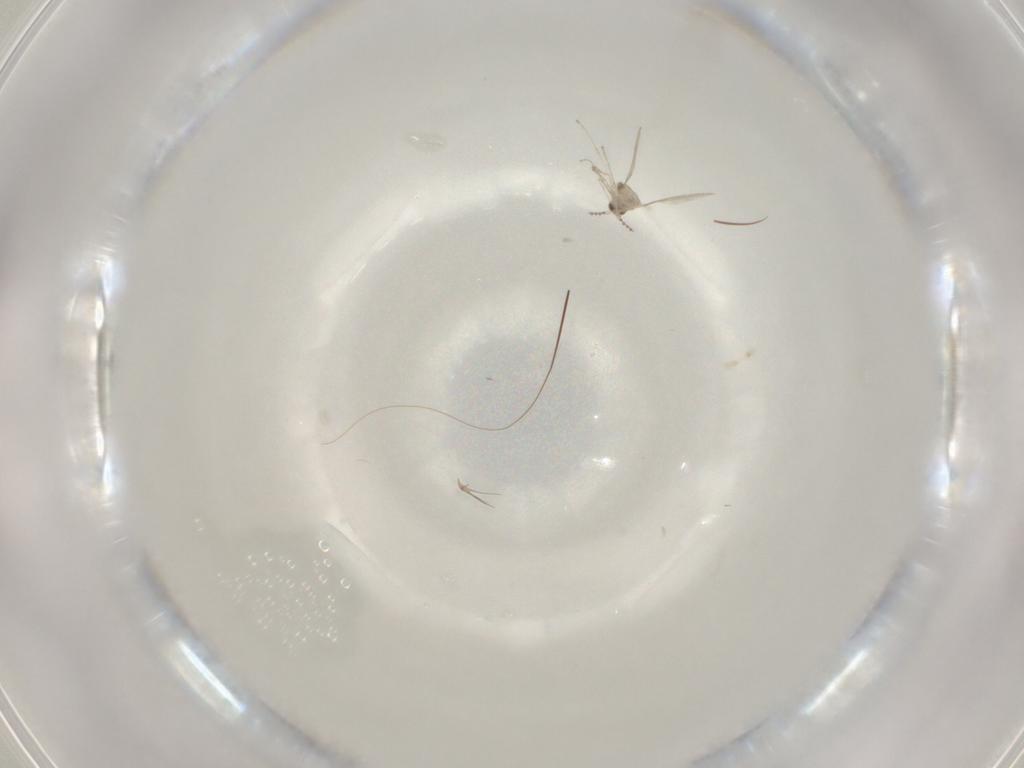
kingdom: Animalia
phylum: Arthropoda
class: Insecta
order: Diptera
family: Cecidomyiidae
